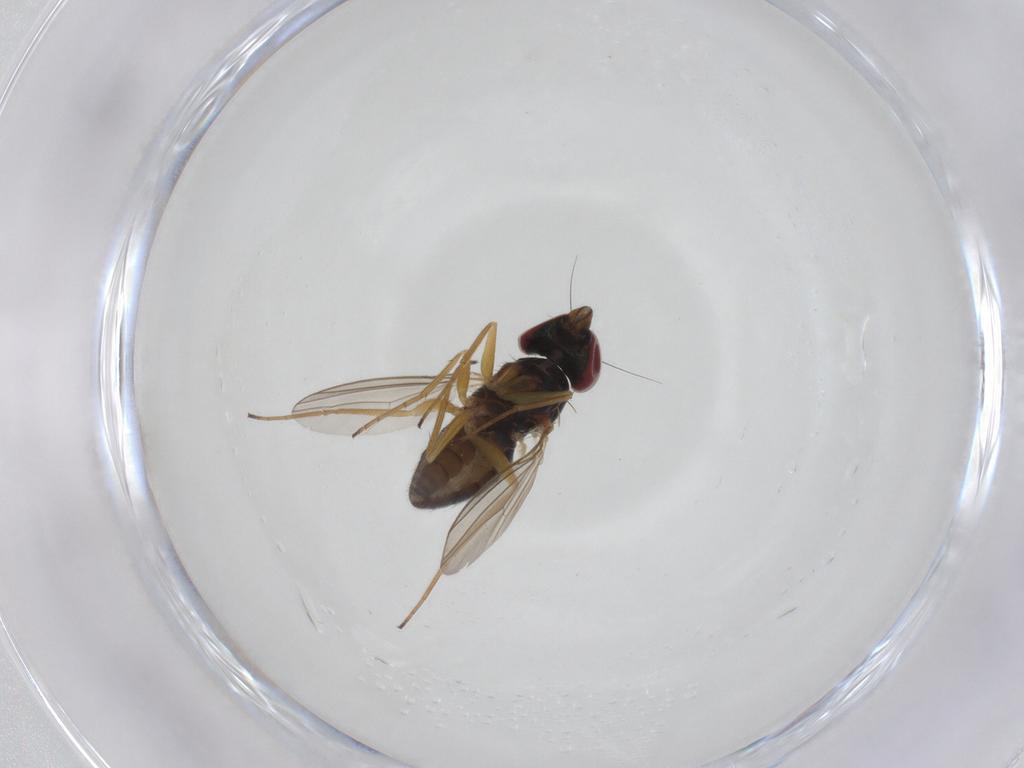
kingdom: Animalia
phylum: Arthropoda
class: Insecta
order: Diptera
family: Dolichopodidae
